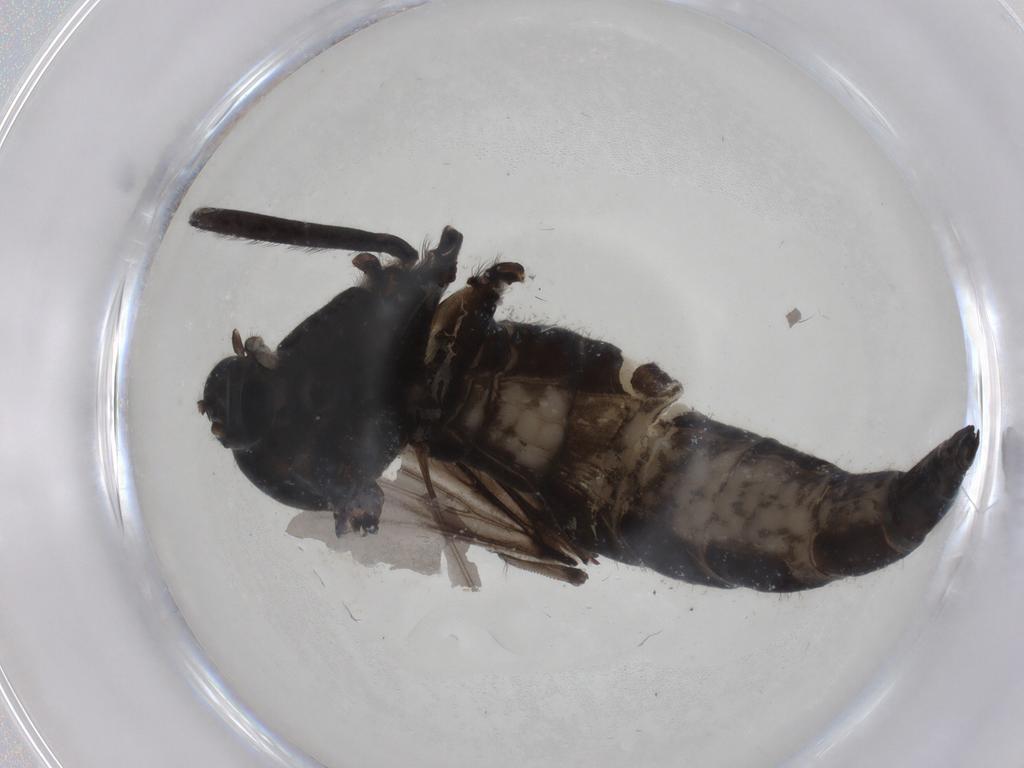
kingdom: Animalia
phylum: Arthropoda
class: Insecta
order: Diptera
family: Sciaridae
